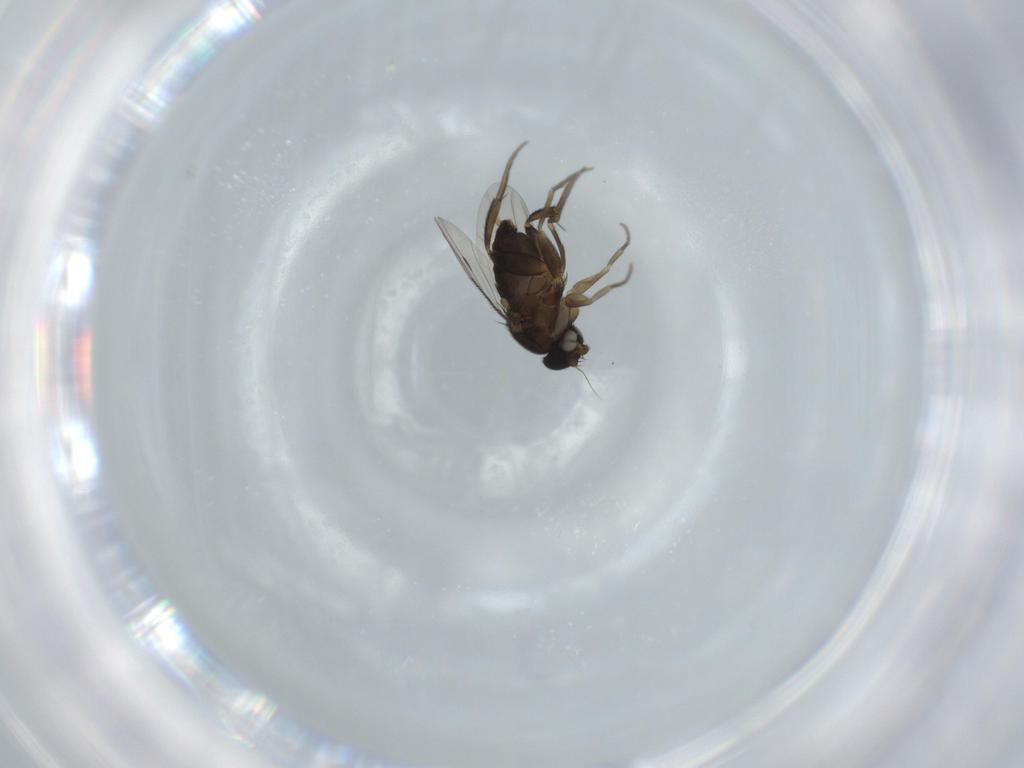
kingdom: Animalia
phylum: Arthropoda
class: Insecta
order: Diptera
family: Phoridae
